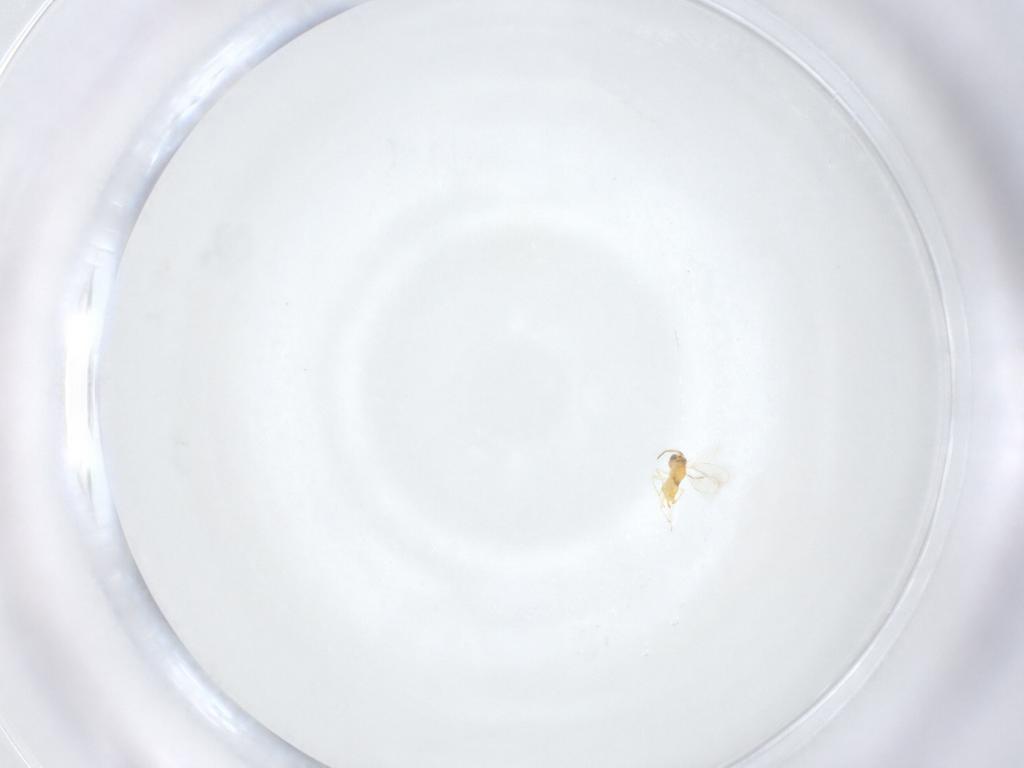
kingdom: Animalia
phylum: Arthropoda
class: Insecta
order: Hymenoptera
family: Aphelinidae
